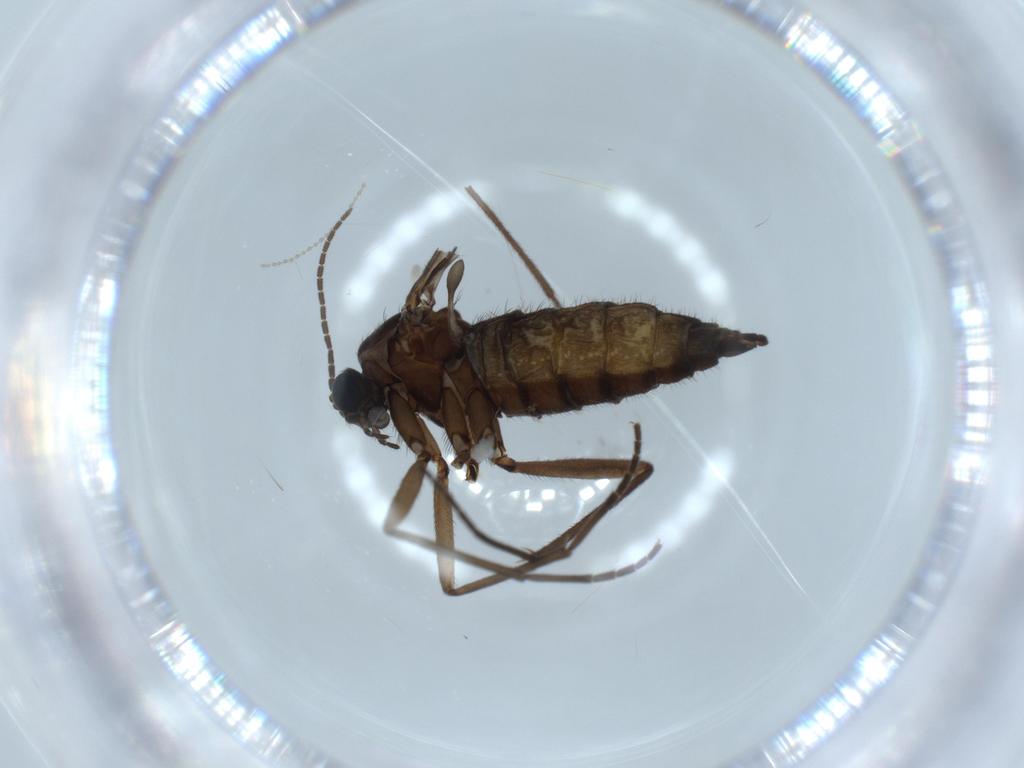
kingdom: Animalia
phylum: Arthropoda
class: Insecta
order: Diptera
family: Sciaridae
